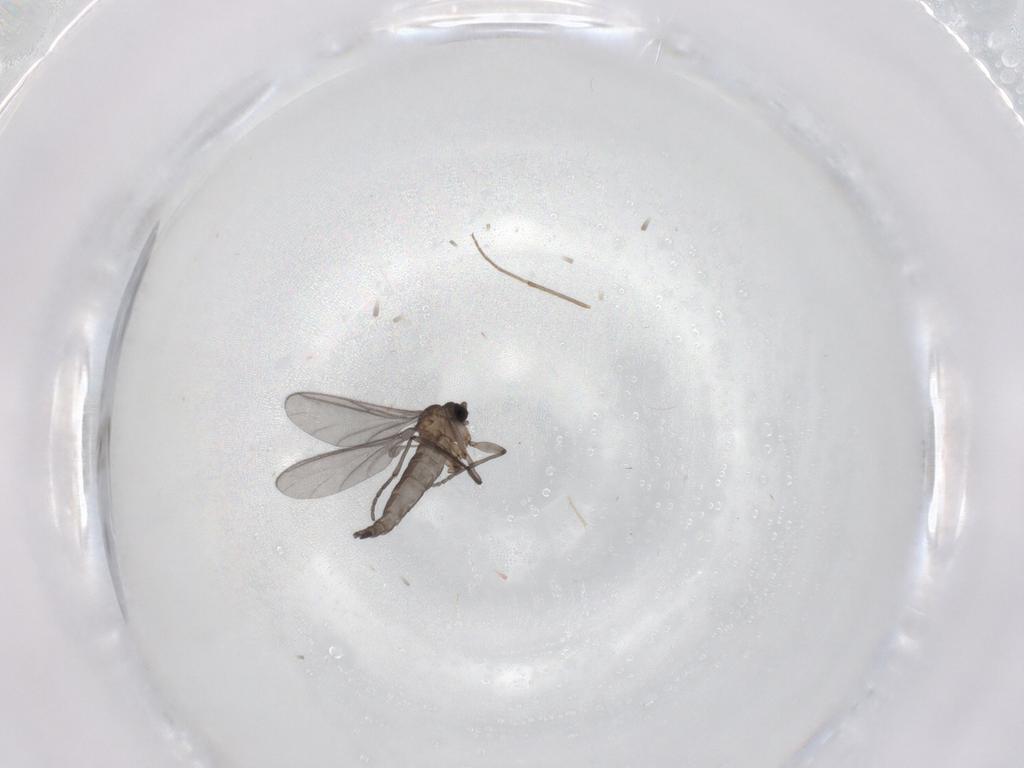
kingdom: Animalia
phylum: Arthropoda
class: Insecta
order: Diptera
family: Sciaridae
